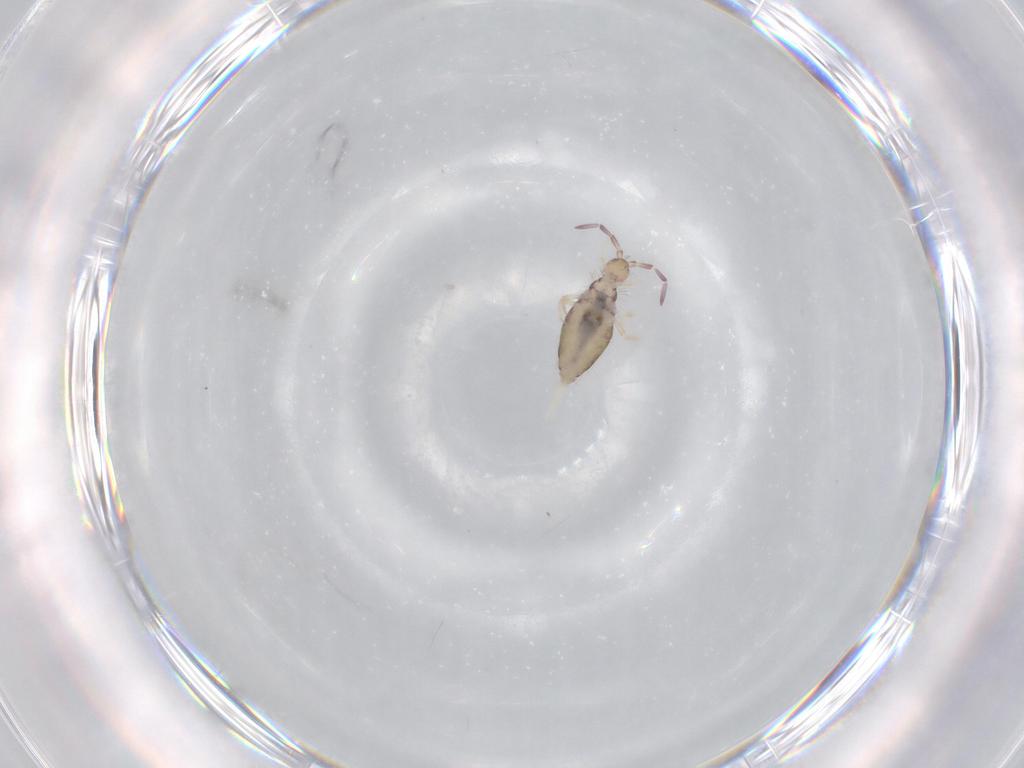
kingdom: Animalia
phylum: Arthropoda
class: Collembola
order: Entomobryomorpha
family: Entomobryidae
